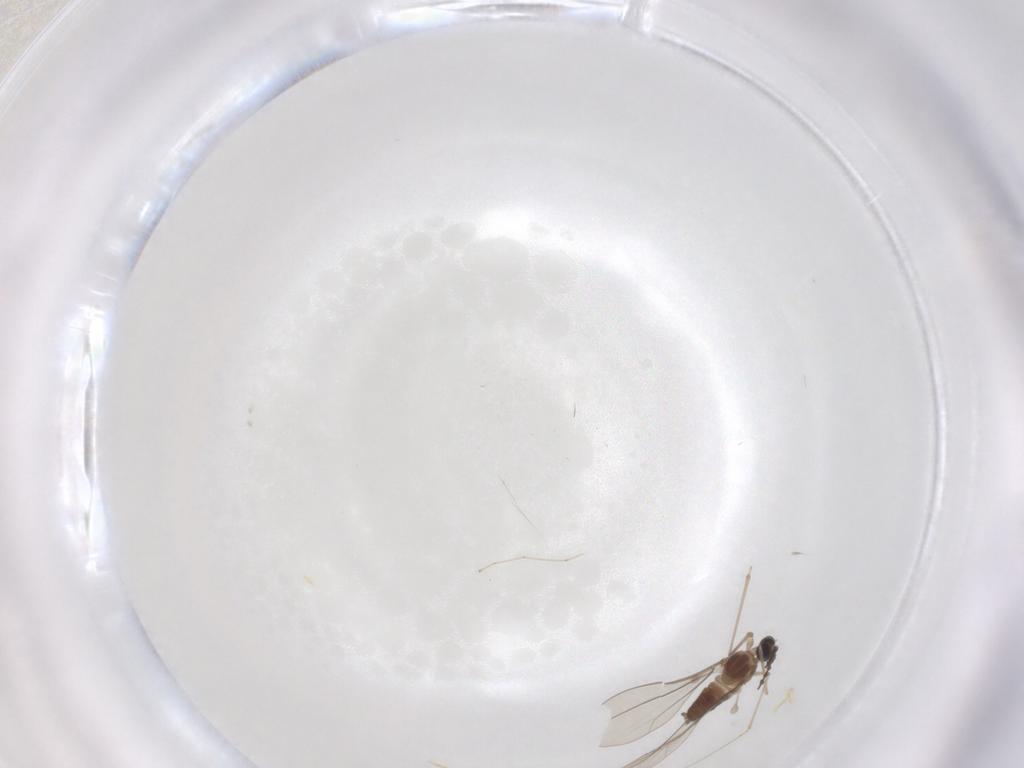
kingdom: Animalia
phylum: Arthropoda
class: Insecta
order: Diptera
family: Cecidomyiidae
